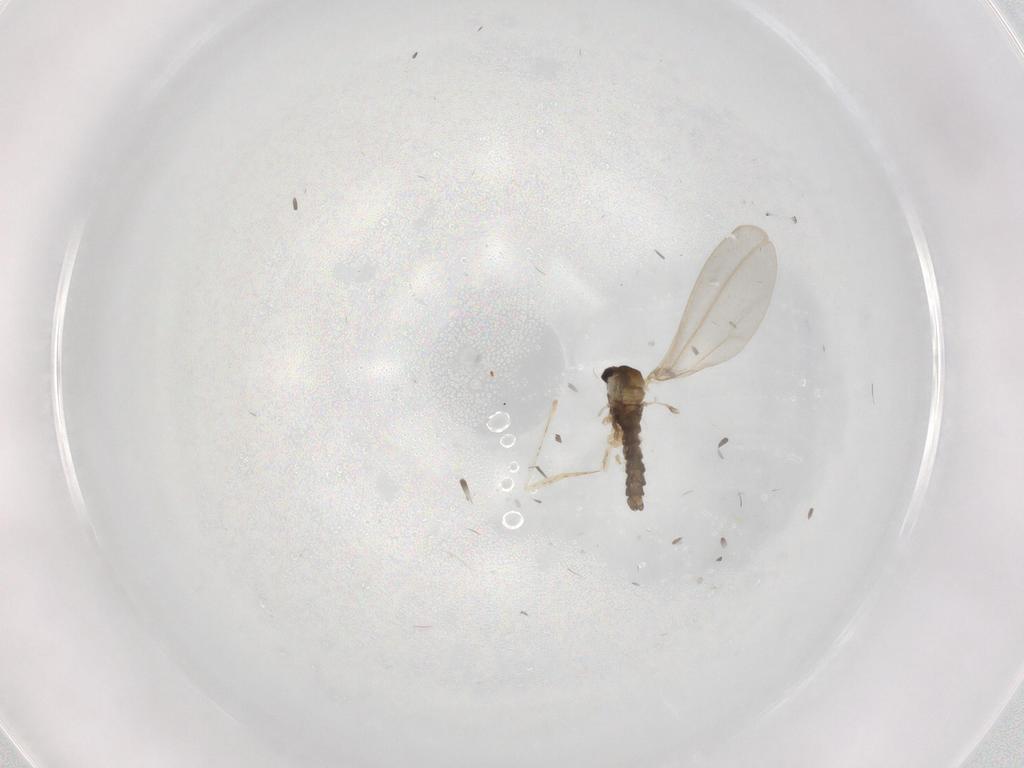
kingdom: Animalia
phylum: Arthropoda
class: Insecta
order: Diptera
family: Ceratopogonidae
